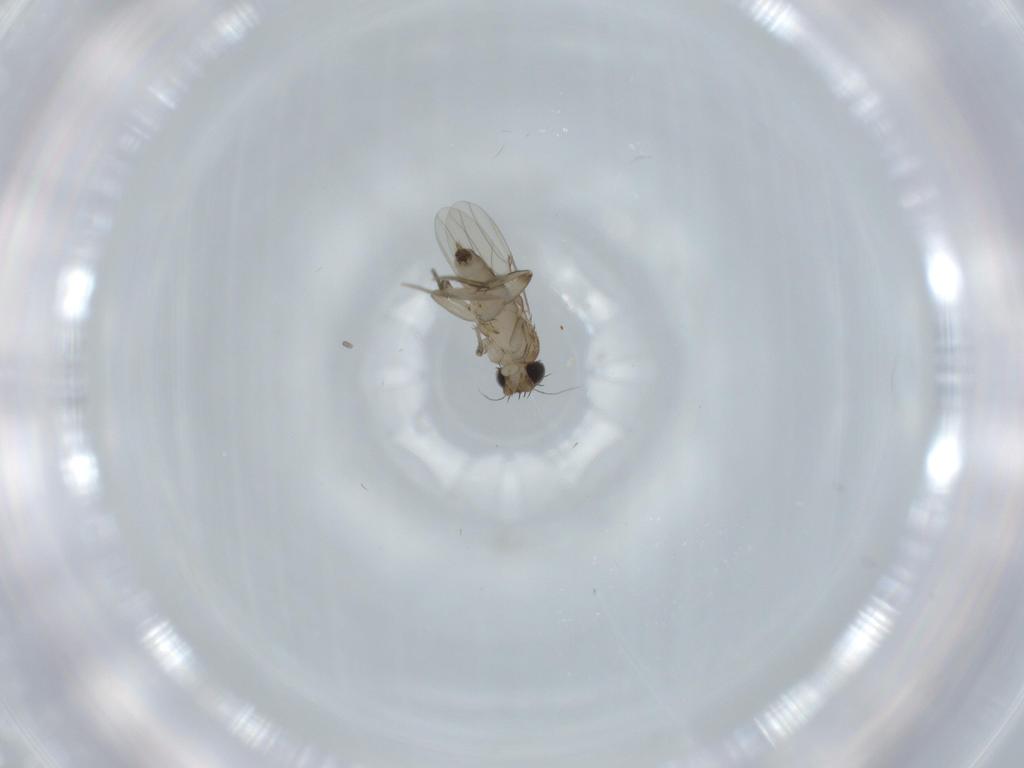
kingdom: Animalia
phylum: Arthropoda
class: Insecta
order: Diptera
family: Phoridae
